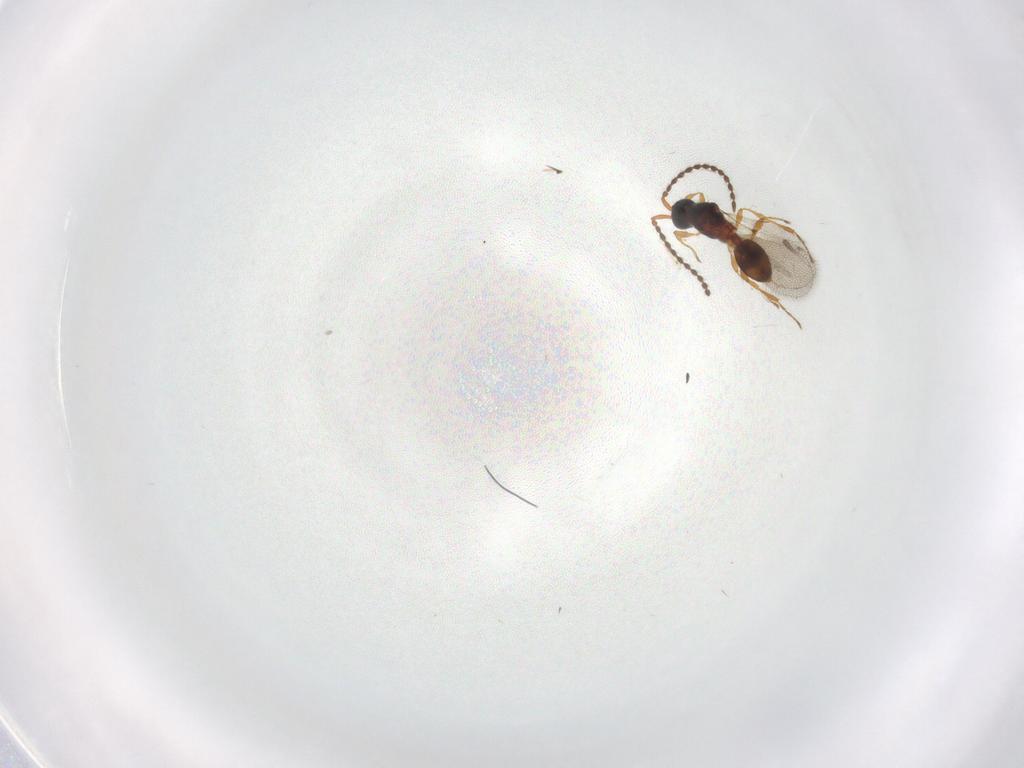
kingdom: Animalia
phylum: Arthropoda
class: Insecta
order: Hymenoptera
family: Diapriidae
